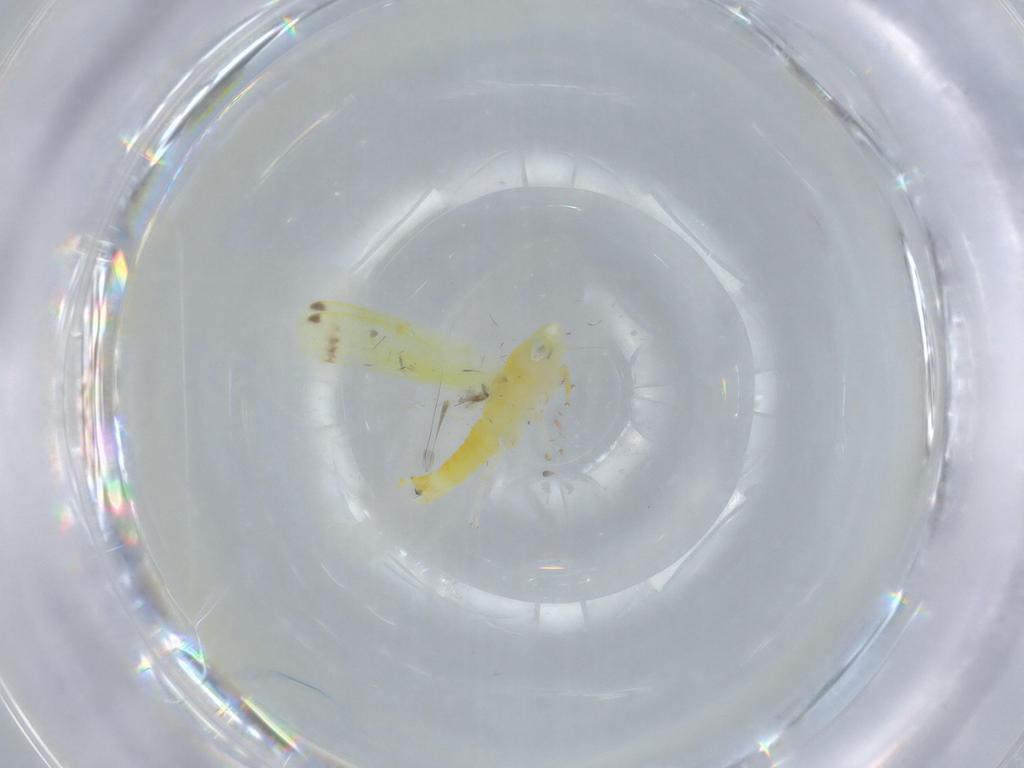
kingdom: Animalia
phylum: Arthropoda
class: Insecta
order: Hemiptera
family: Cicadellidae
